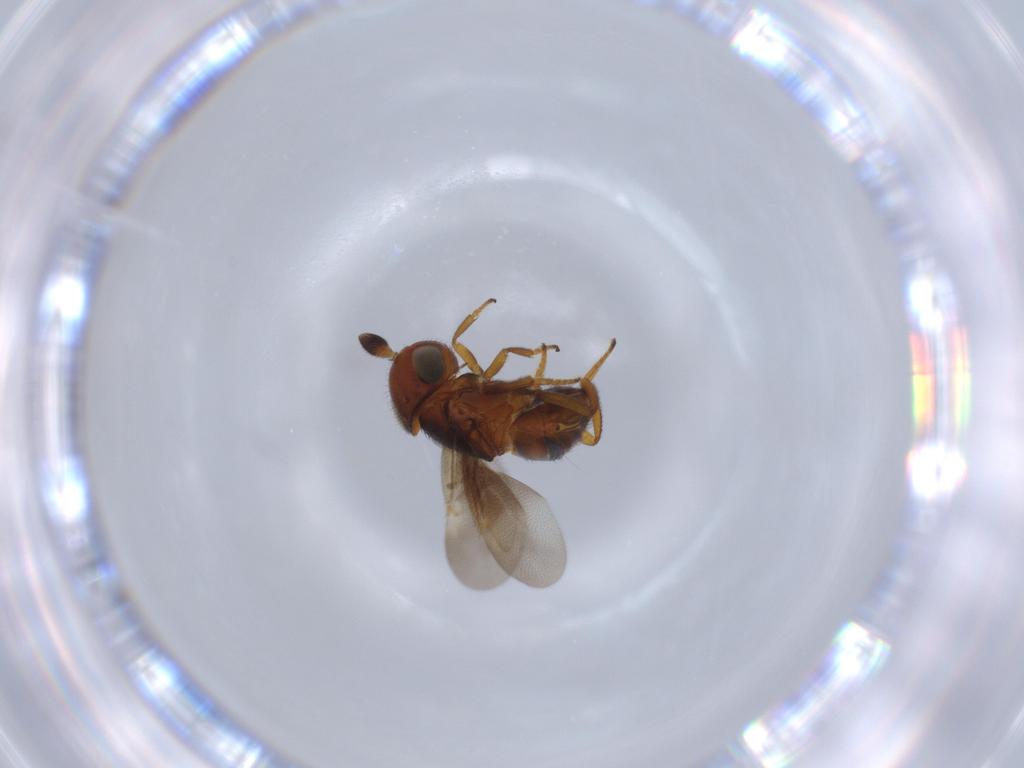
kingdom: Animalia
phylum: Arthropoda
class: Insecta
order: Hymenoptera
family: Encyrtidae
